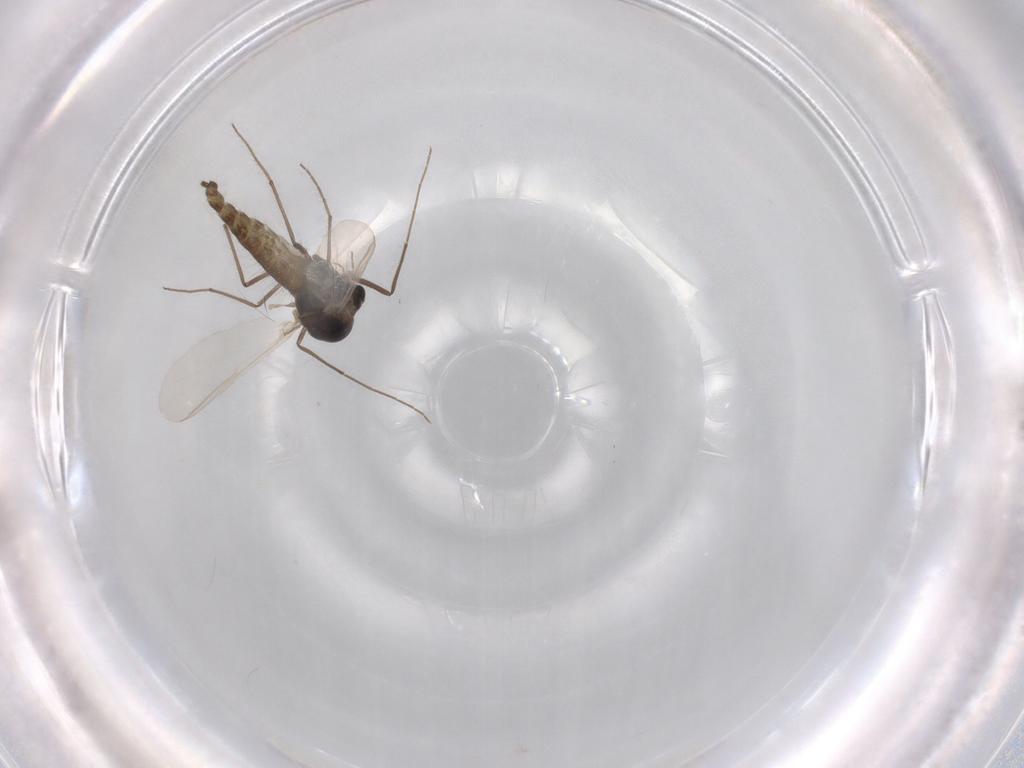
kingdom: Animalia
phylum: Arthropoda
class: Insecta
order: Diptera
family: Chironomidae
